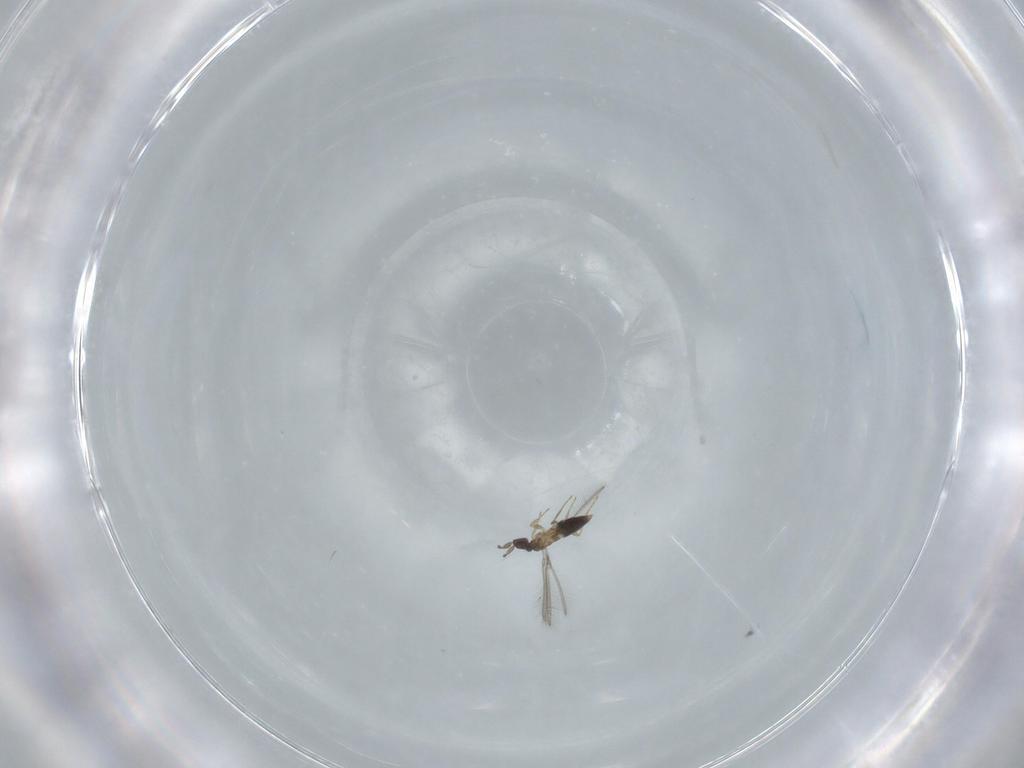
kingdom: Animalia
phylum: Arthropoda
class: Insecta
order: Hymenoptera
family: Mymaridae
